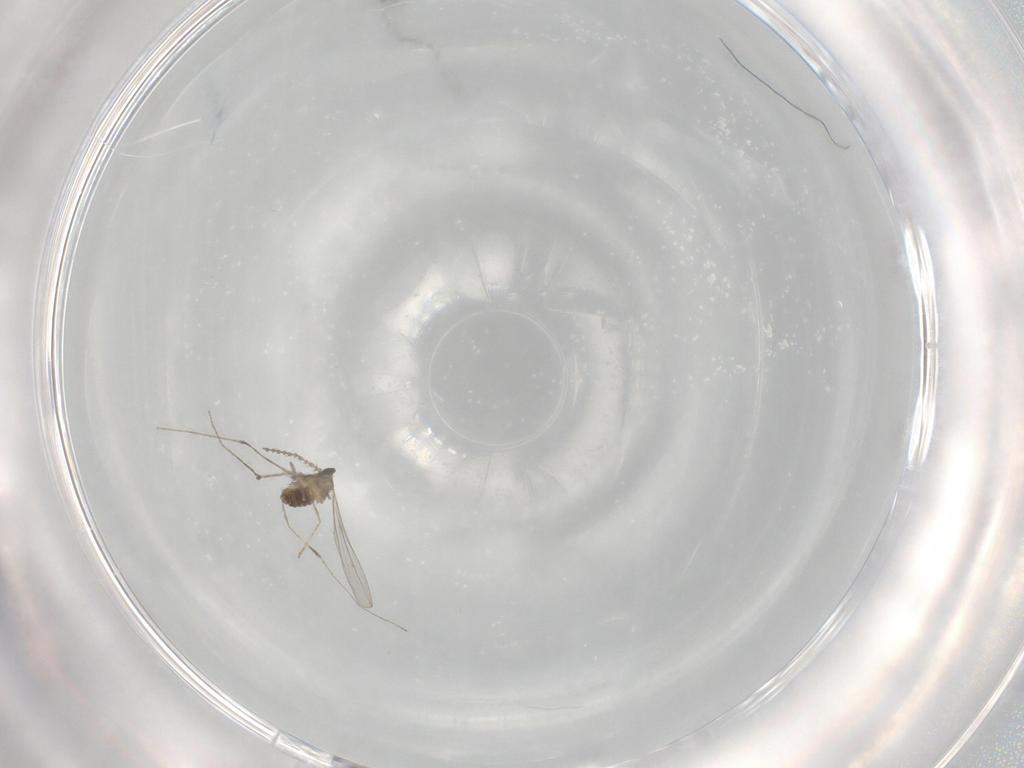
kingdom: Animalia
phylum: Arthropoda
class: Insecta
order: Diptera
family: Cecidomyiidae
